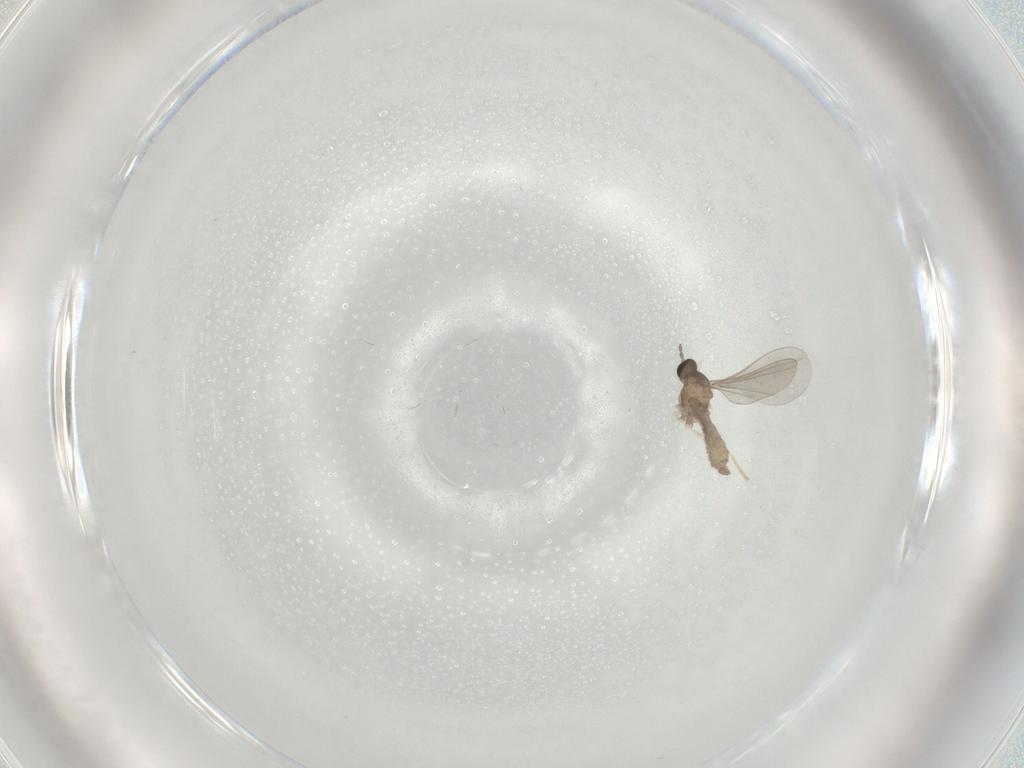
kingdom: Animalia
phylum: Arthropoda
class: Insecta
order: Diptera
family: Cecidomyiidae
